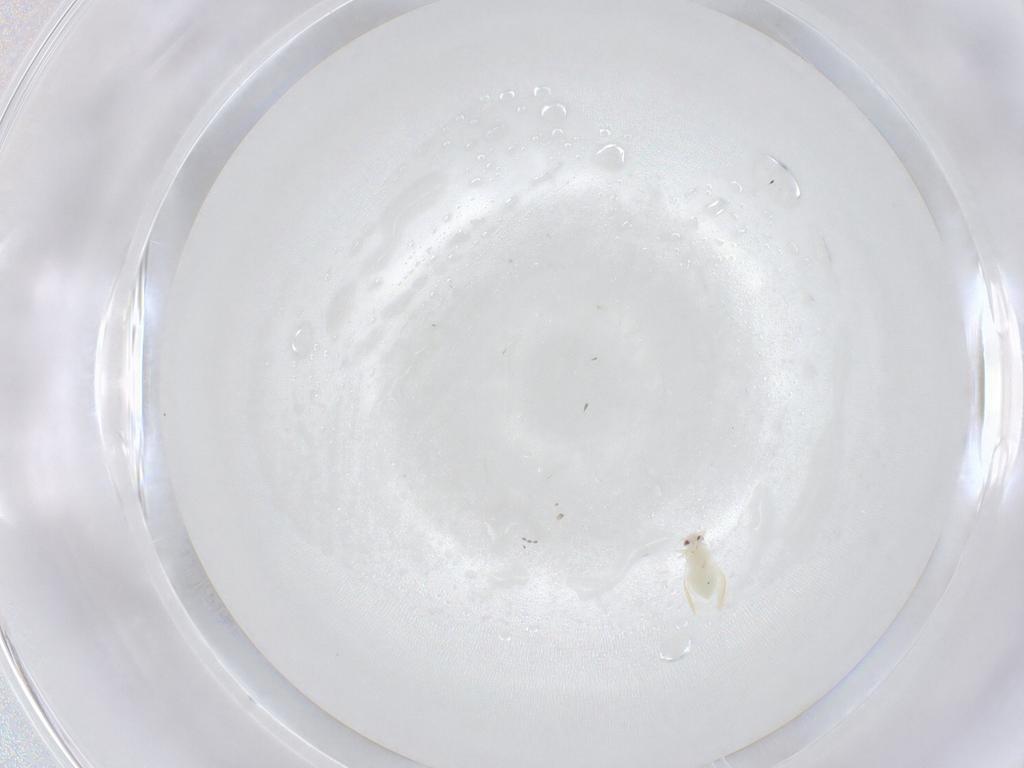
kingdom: Animalia
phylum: Arthropoda
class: Insecta
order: Hemiptera
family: Aleyrodidae
